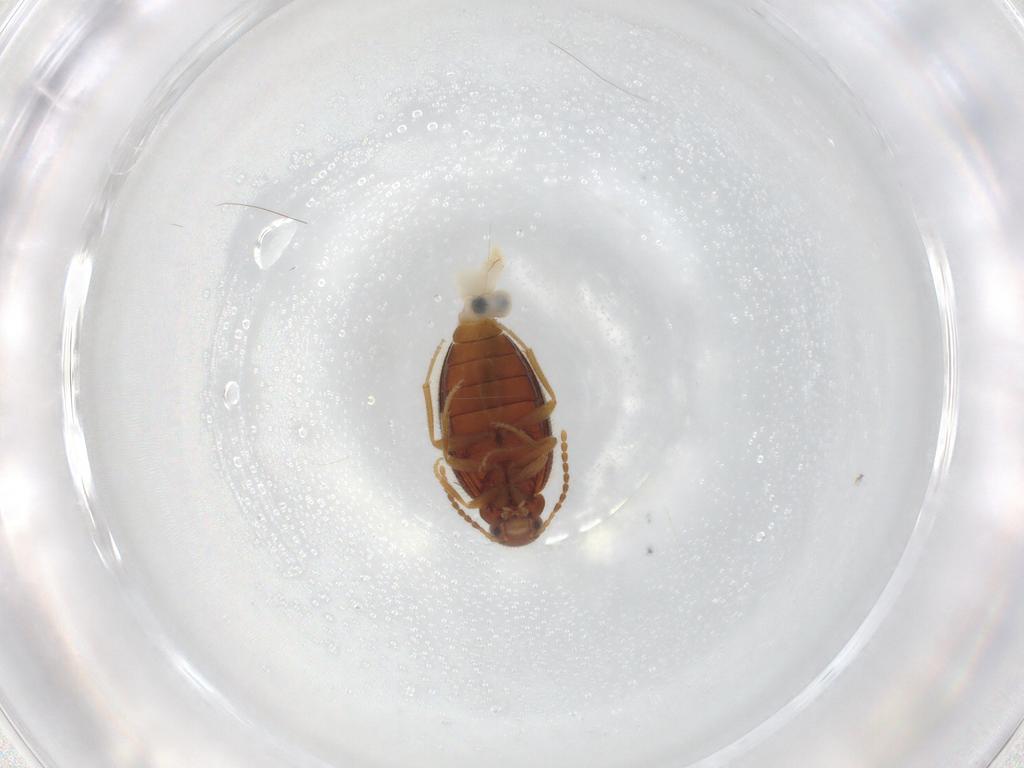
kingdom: Animalia
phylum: Arthropoda
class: Insecta
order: Coleoptera
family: Scraptiidae
